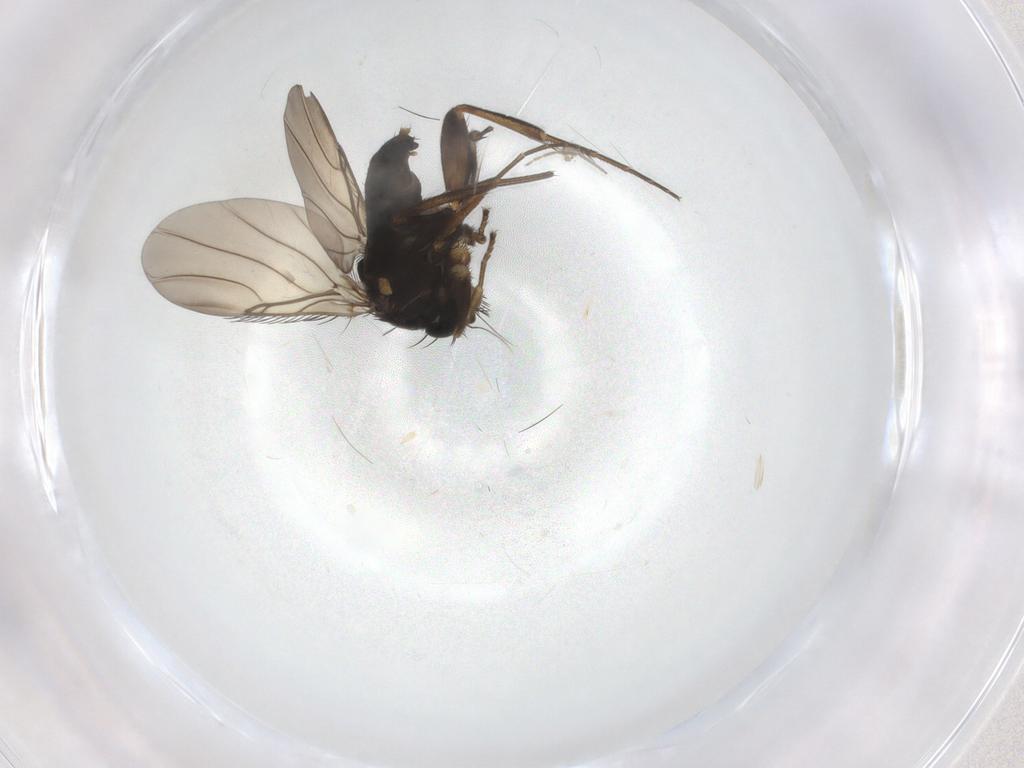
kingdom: Animalia
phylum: Arthropoda
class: Insecta
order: Diptera
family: Phoridae
